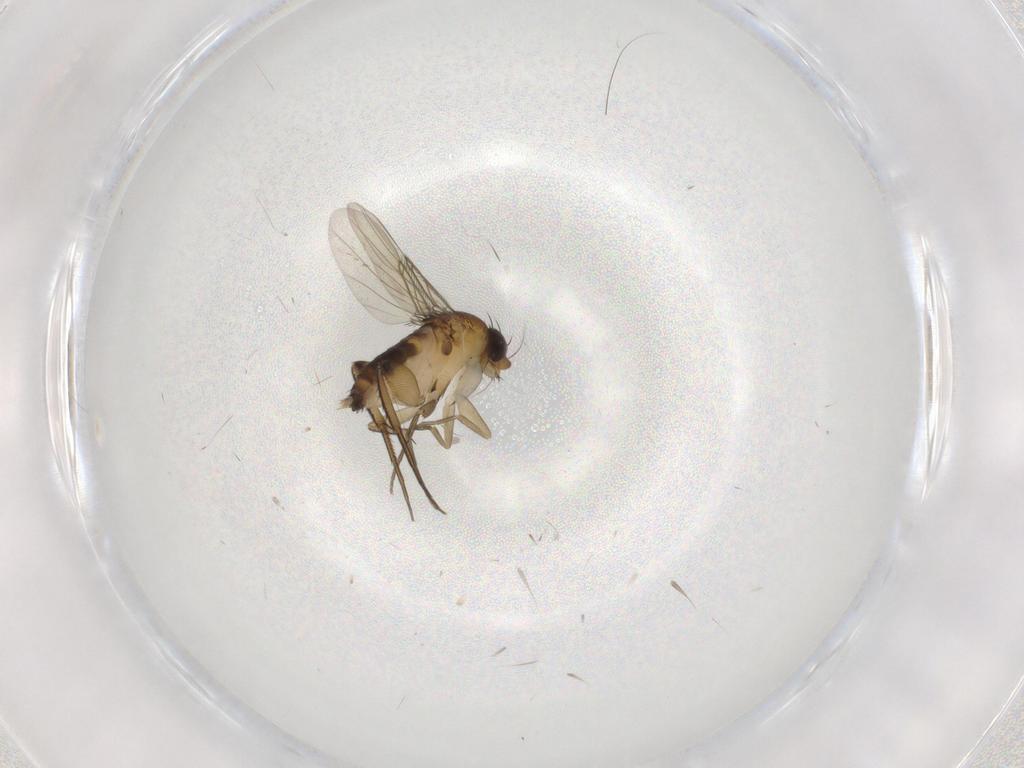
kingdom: Animalia
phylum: Arthropoda
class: Insecta
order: Diptera
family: Phoridae
